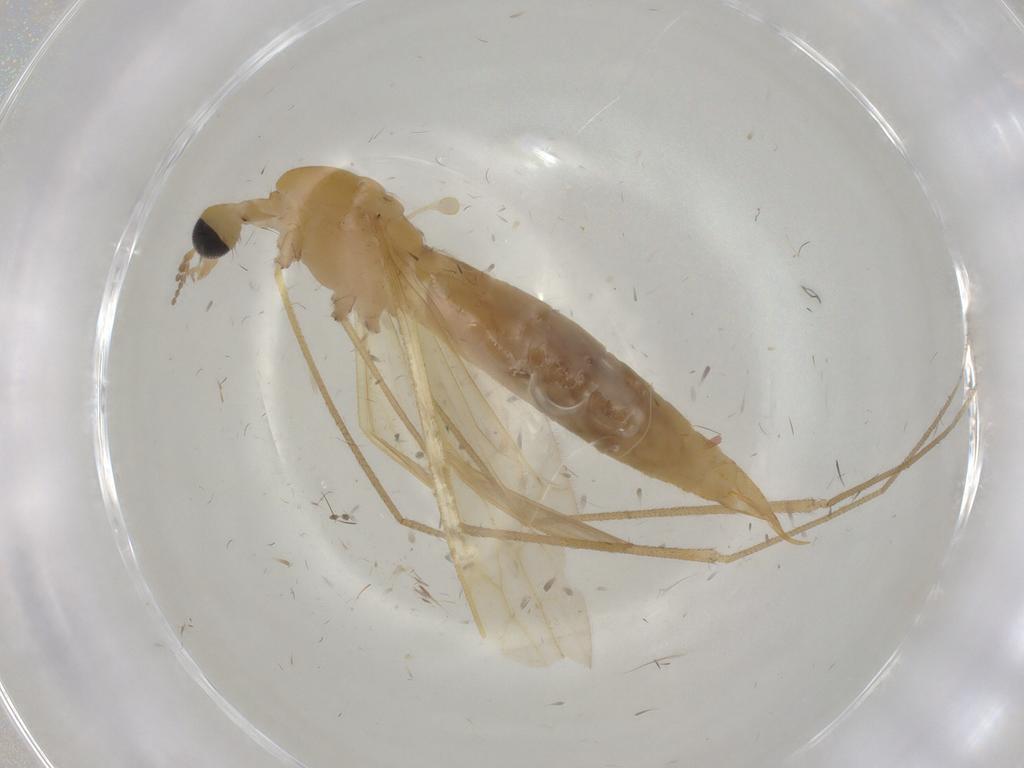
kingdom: Animalia
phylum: Arthropoda
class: Insecta
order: Diptera
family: Limoniidae
